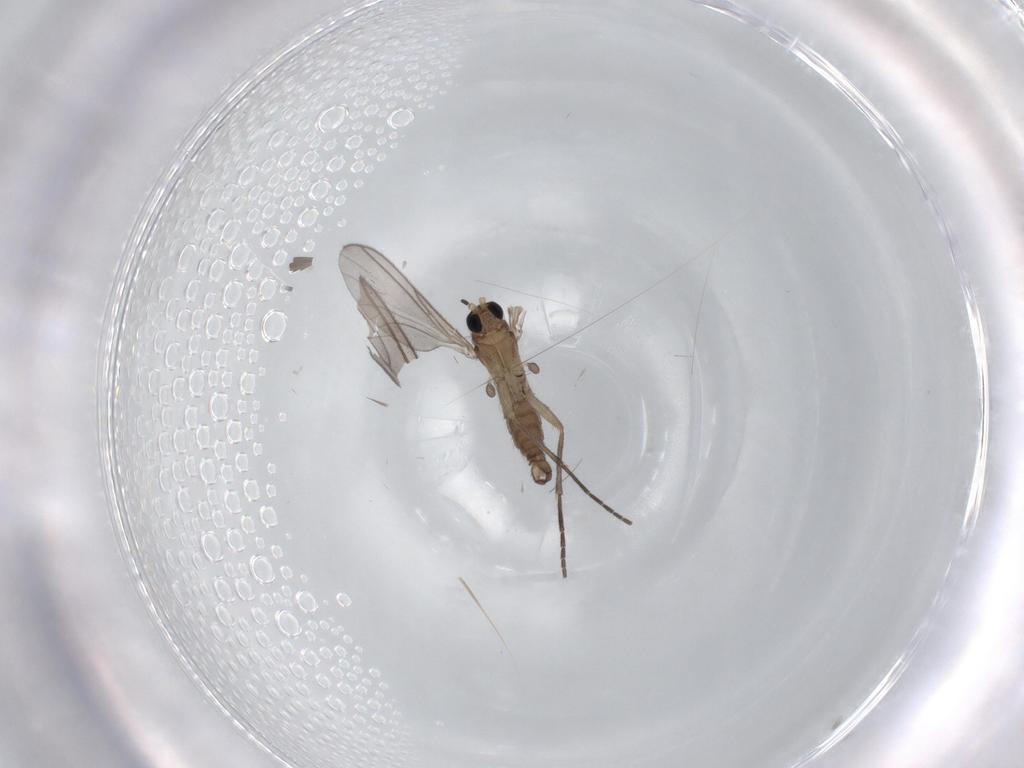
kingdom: Animalia
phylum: Arthropoda
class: Insecta
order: Diptera
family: Sciaridae
